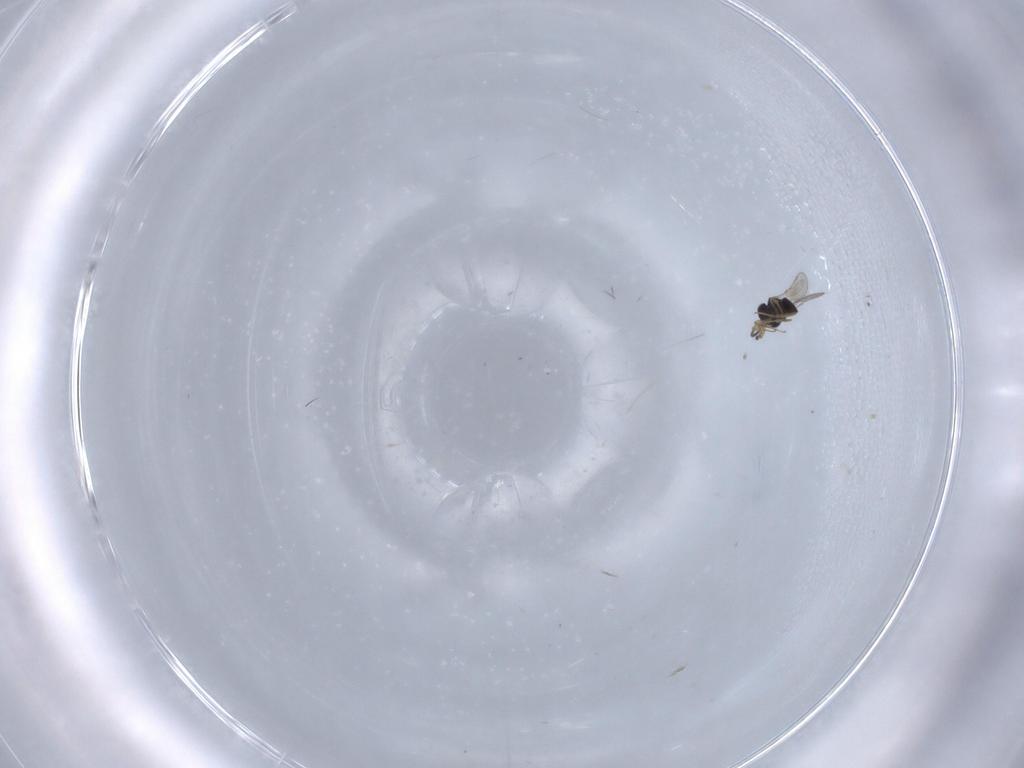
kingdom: Animalia
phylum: Arthropoda
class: Insecta
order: Hymenoptera
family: Scelionidae
